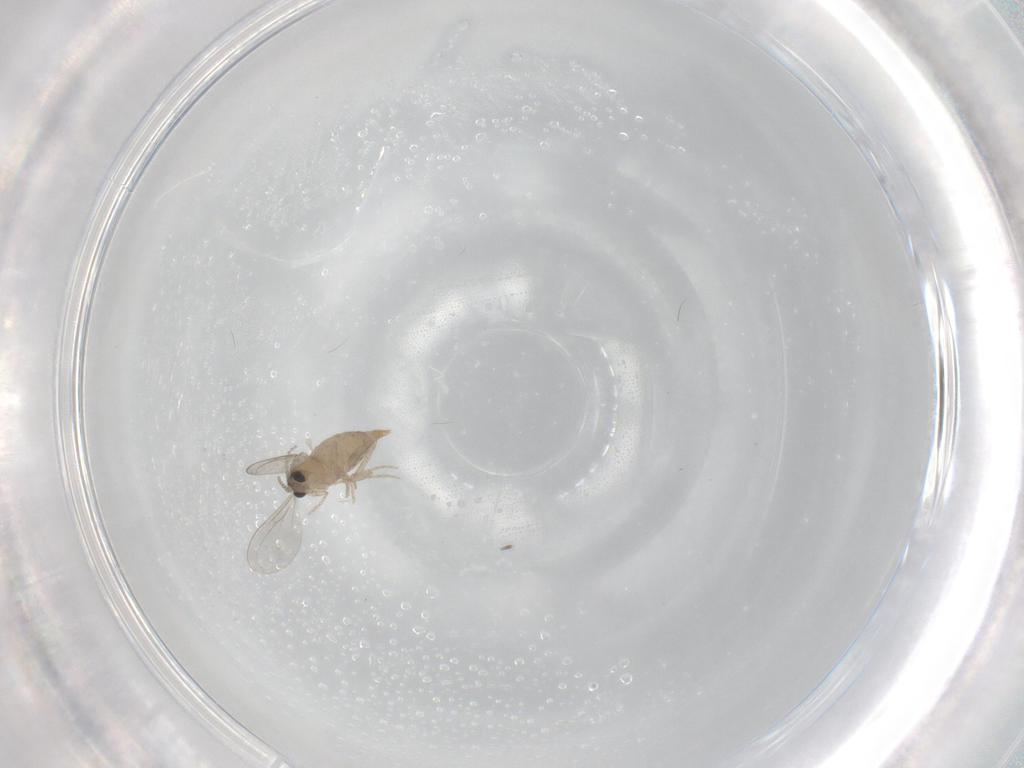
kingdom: Animalia
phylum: Arthropoda
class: Insecta
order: Diptera
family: Cecidomyiidae
